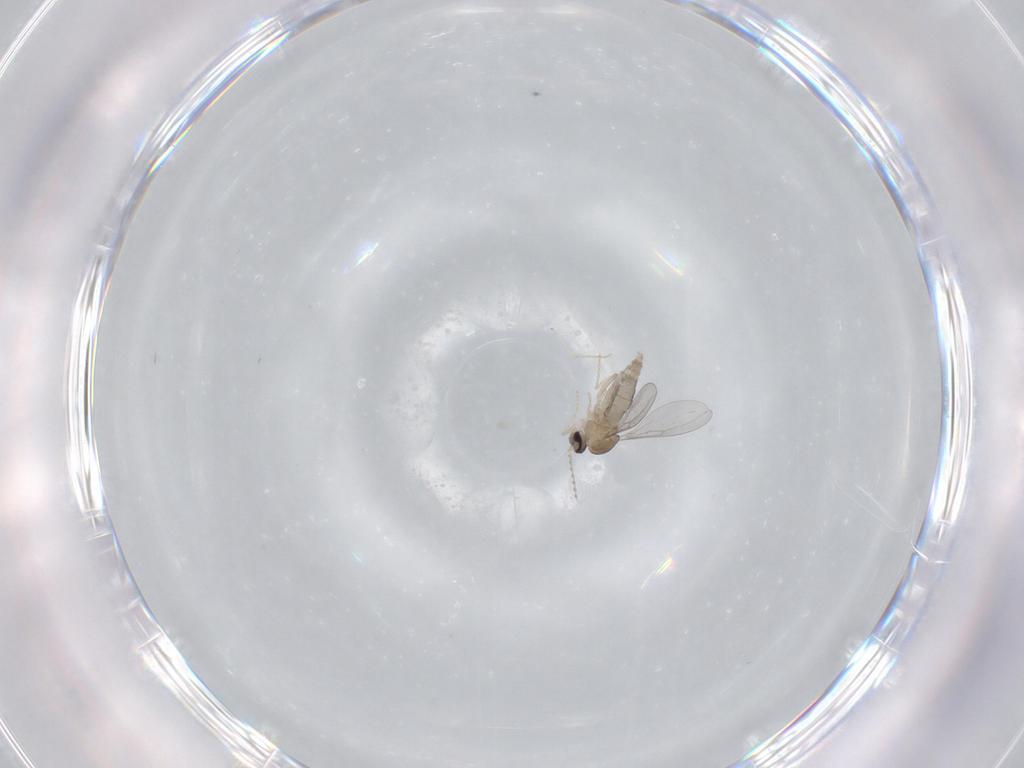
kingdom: Animalia
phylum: Arthropoda
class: Insecta
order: Diptera
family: Cecidomyiidae
